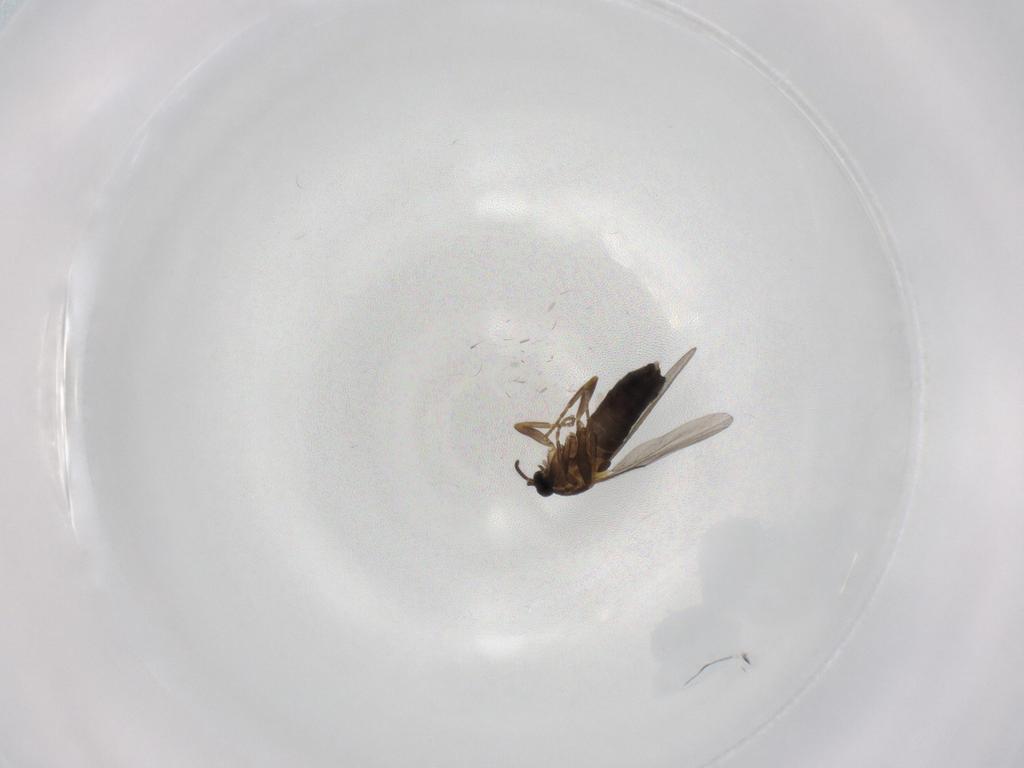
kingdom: Animalia
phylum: Arthropoda
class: Insecta
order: Diptera
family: Scatopsidae
